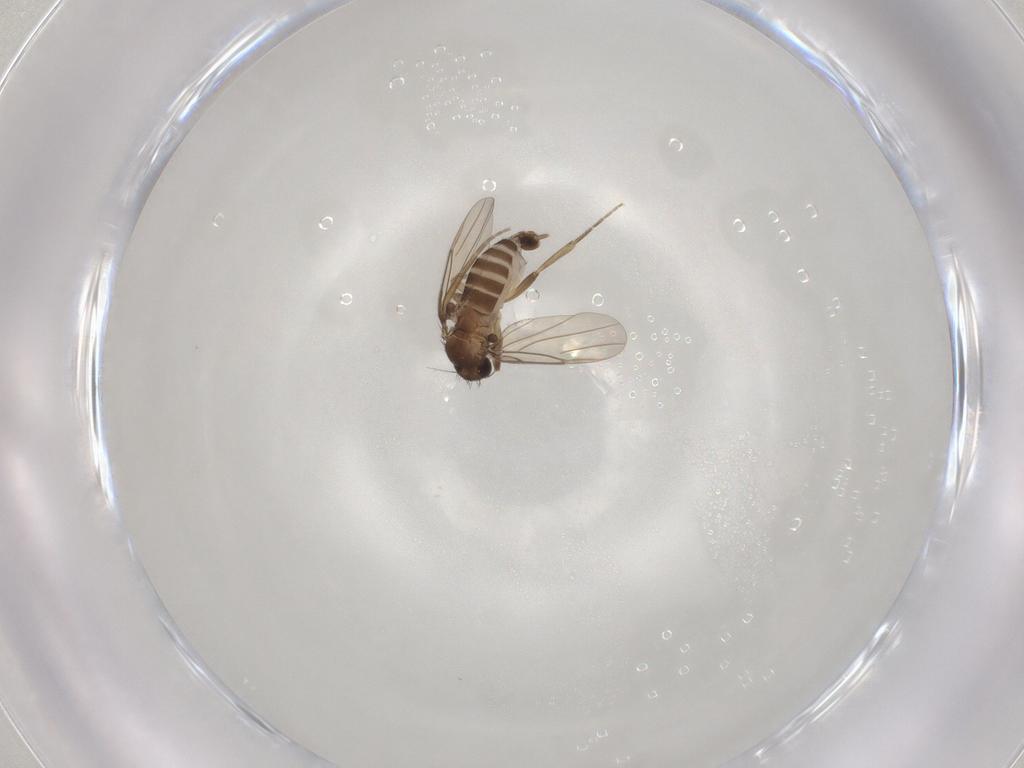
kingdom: Animalia
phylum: Arthropoda
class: Insecta
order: Diptera
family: Phoridae
